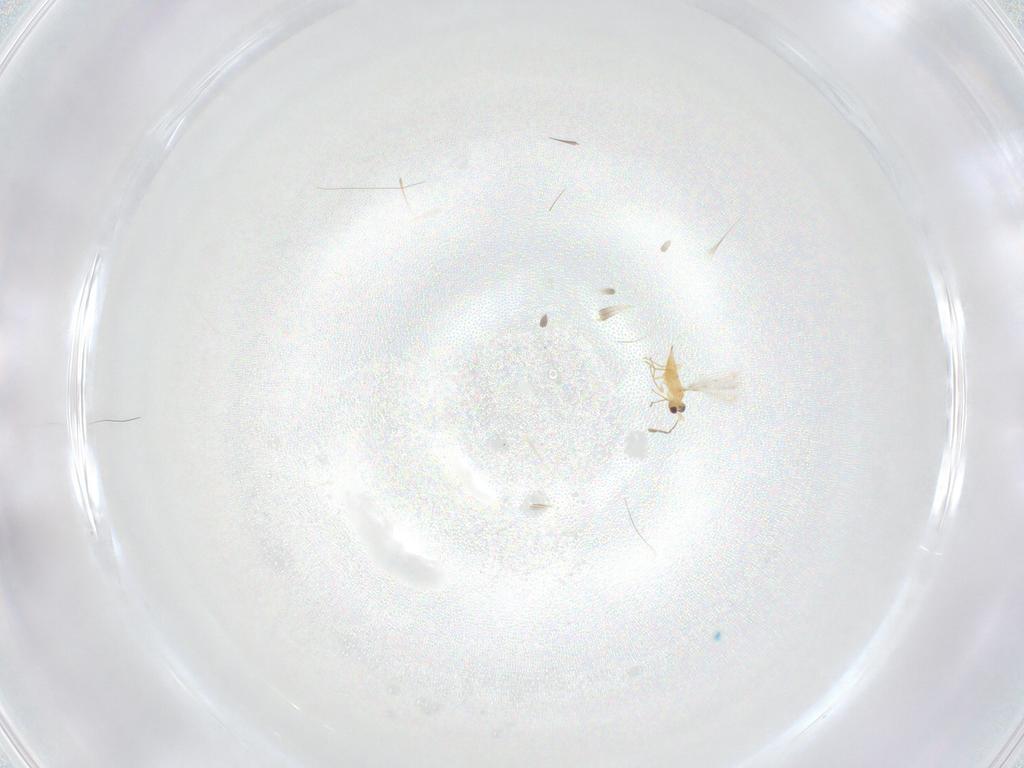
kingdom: Animalia
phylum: Arthropoda
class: Insecta
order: Hymenoptera
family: Mymaridae
